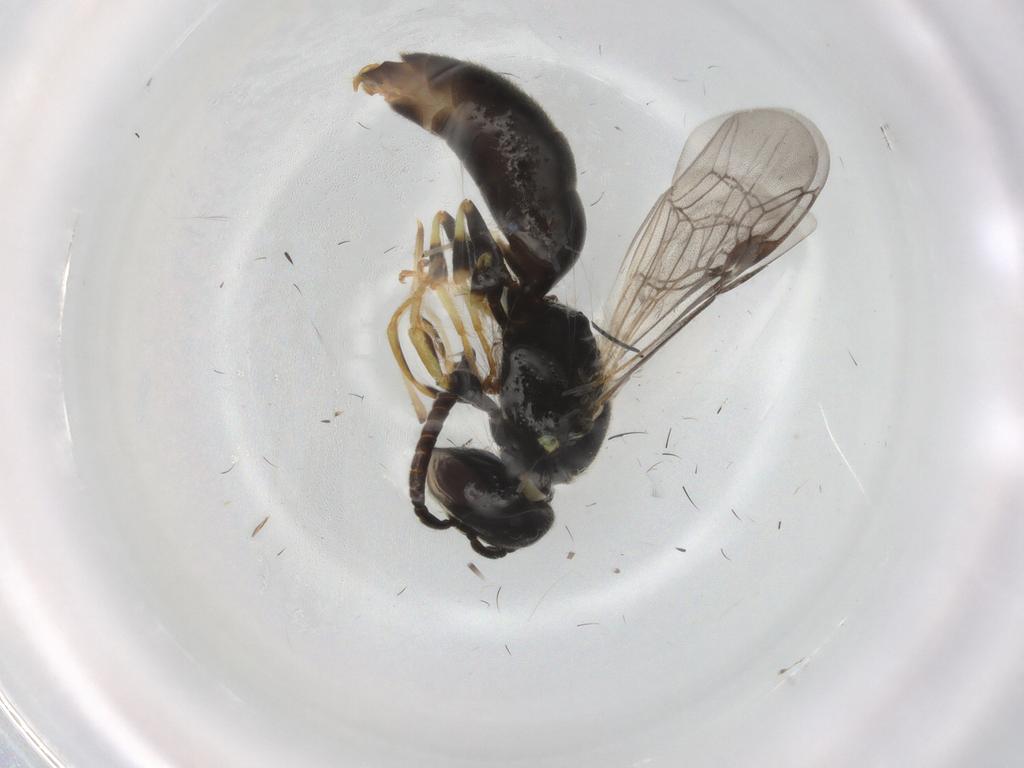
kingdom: Animalia
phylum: Arthropoda
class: Insecta
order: Hymenoptera
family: Colletidae
